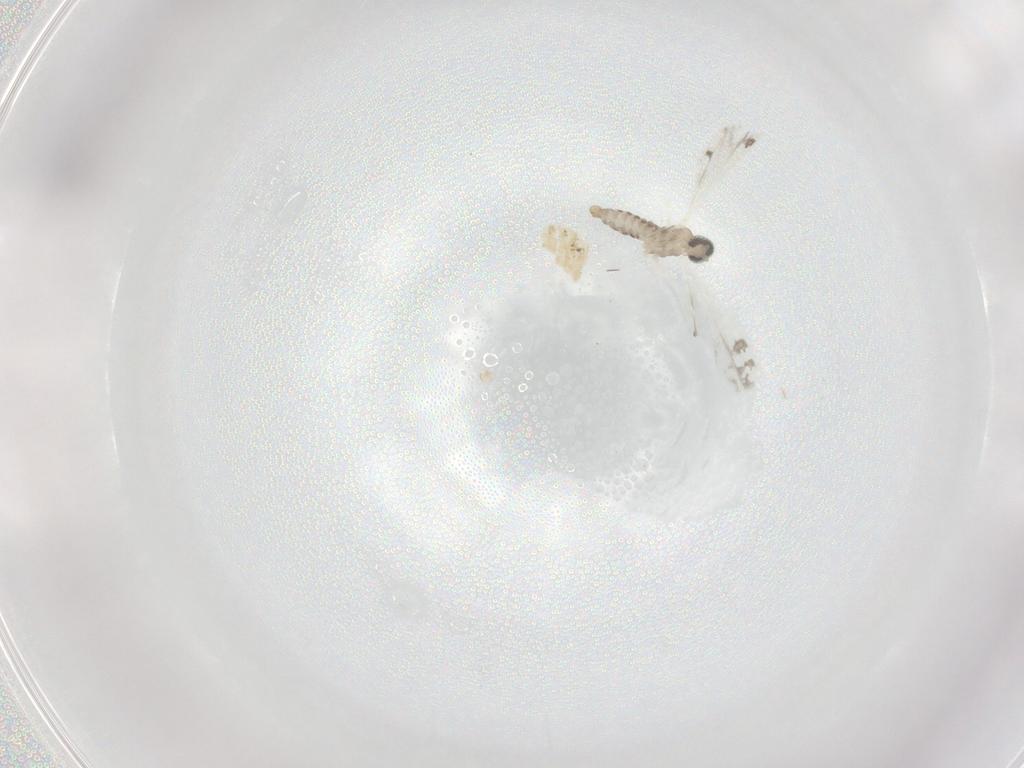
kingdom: Animalia
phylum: Arthropoda
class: Insecta
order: Diptera
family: Cecidomyiidae
